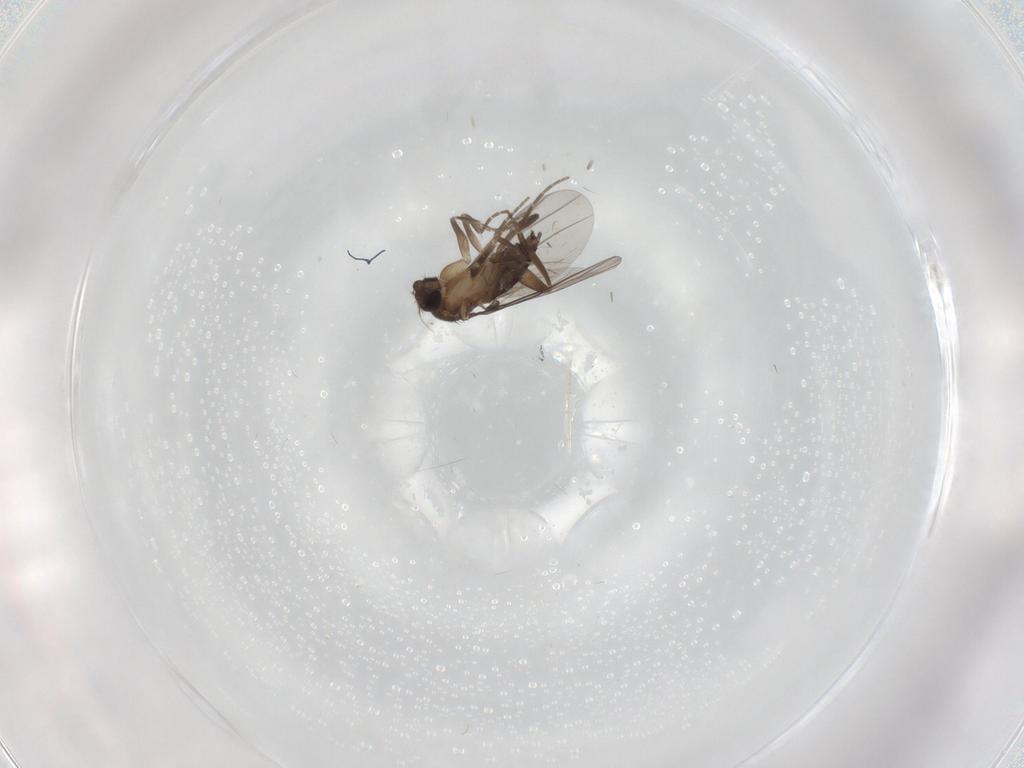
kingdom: Animalia
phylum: Arthropoda
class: Insecta
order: Diptera
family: Phoridae
